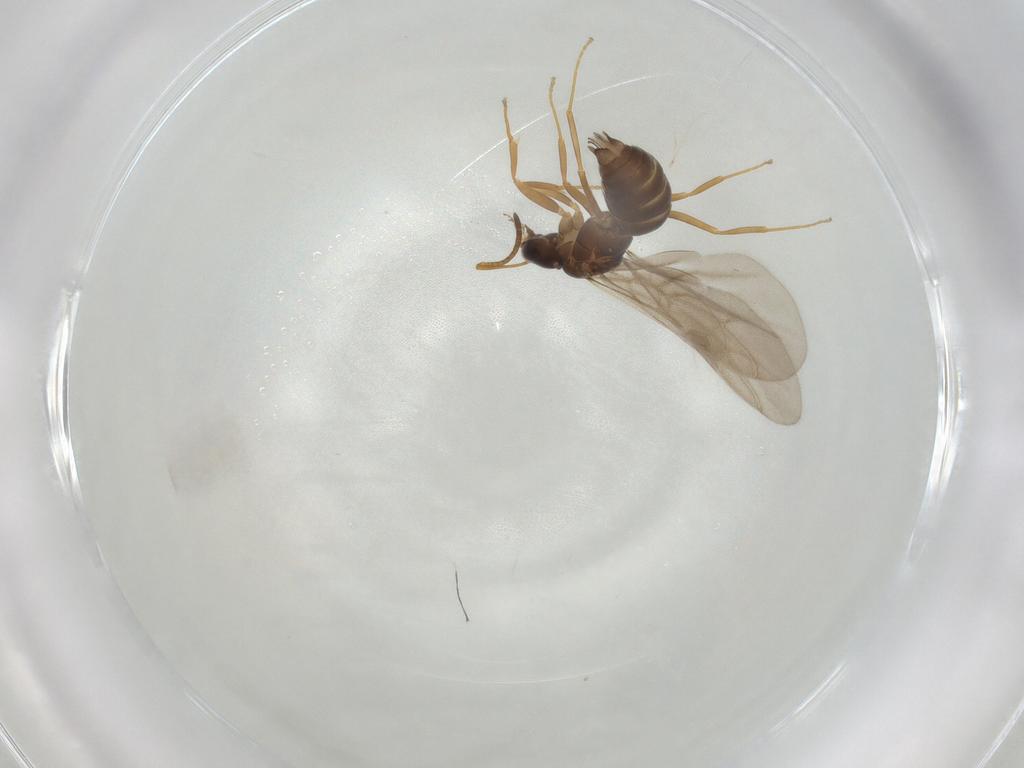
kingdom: Animalia
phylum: Arthropoda
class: Insecta
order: Hymenoptera
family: Formicidae
